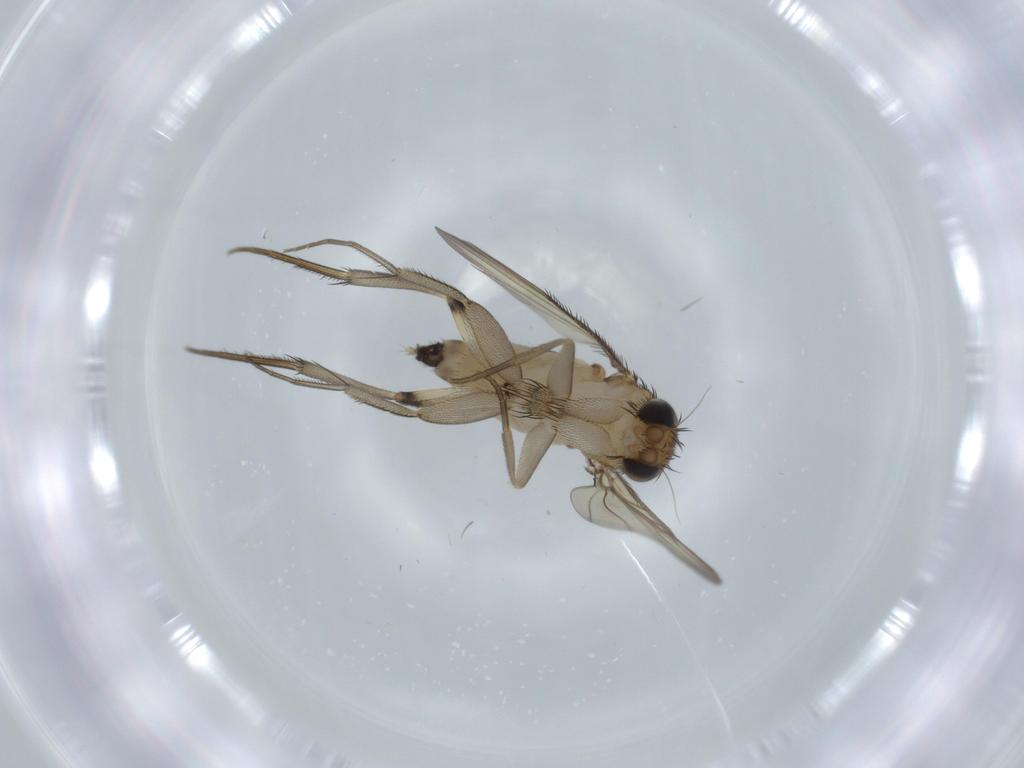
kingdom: Animalia
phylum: Arthropoda
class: Insecta
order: Diptera
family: Phoridae
